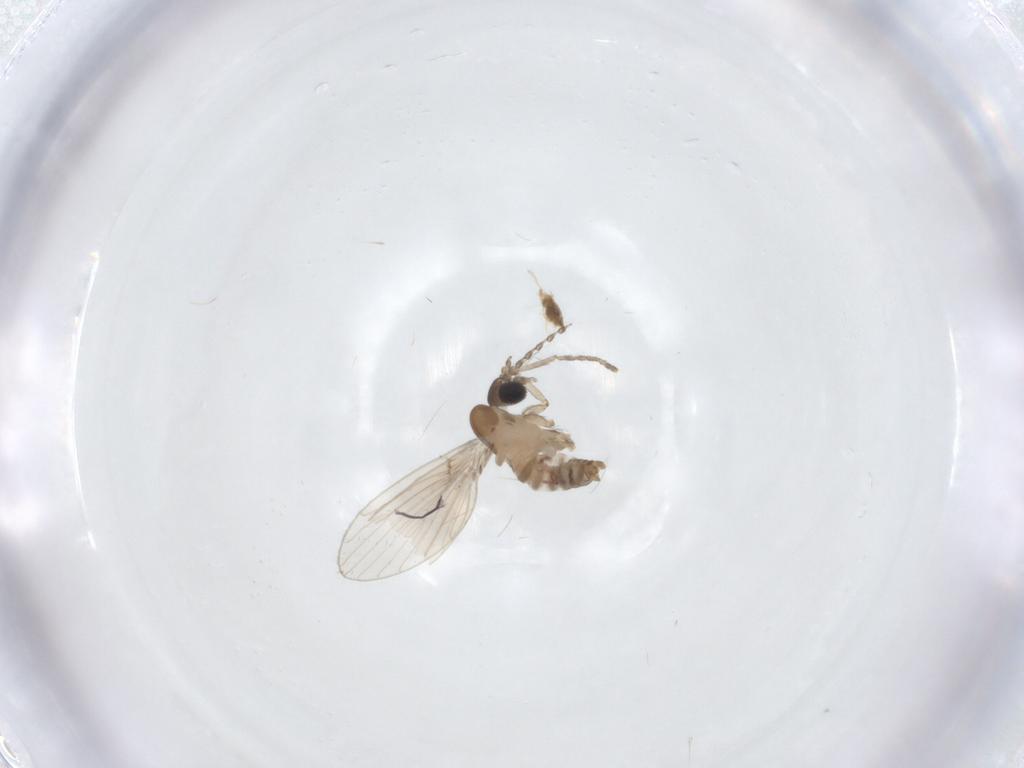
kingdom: Animalia
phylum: Arthropoda
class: Insecta
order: Diptera
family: Psychodidae
